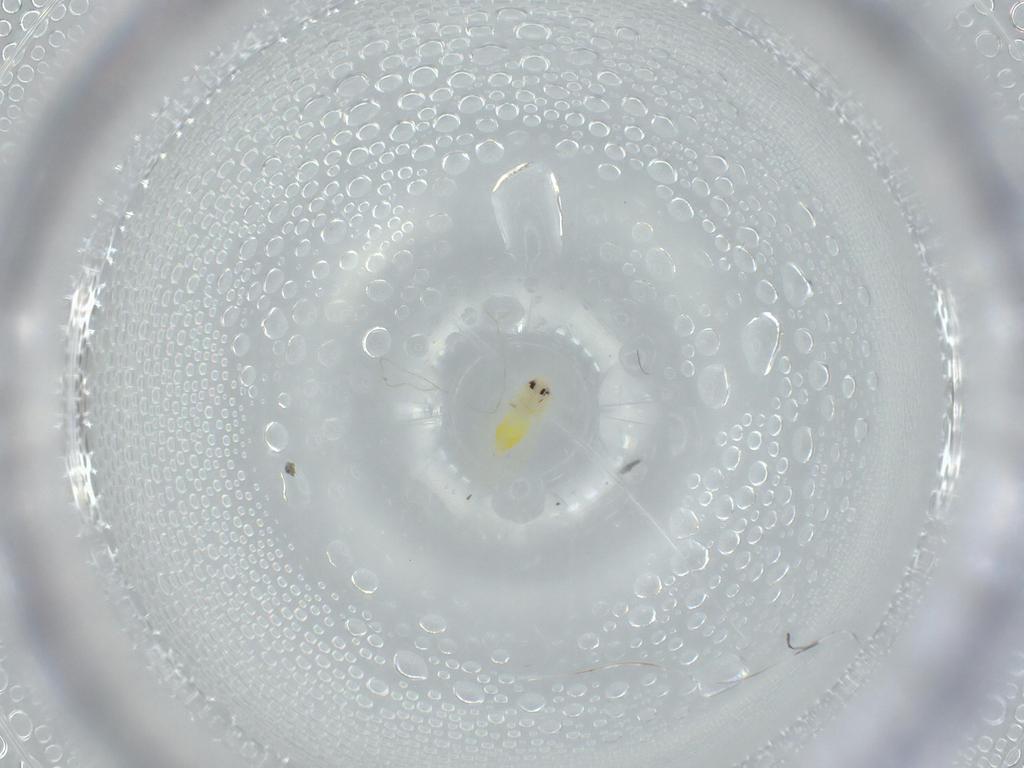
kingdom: Animalia
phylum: Arthropoda
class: Insecta
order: Hemiptera
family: Aleyrodidae
